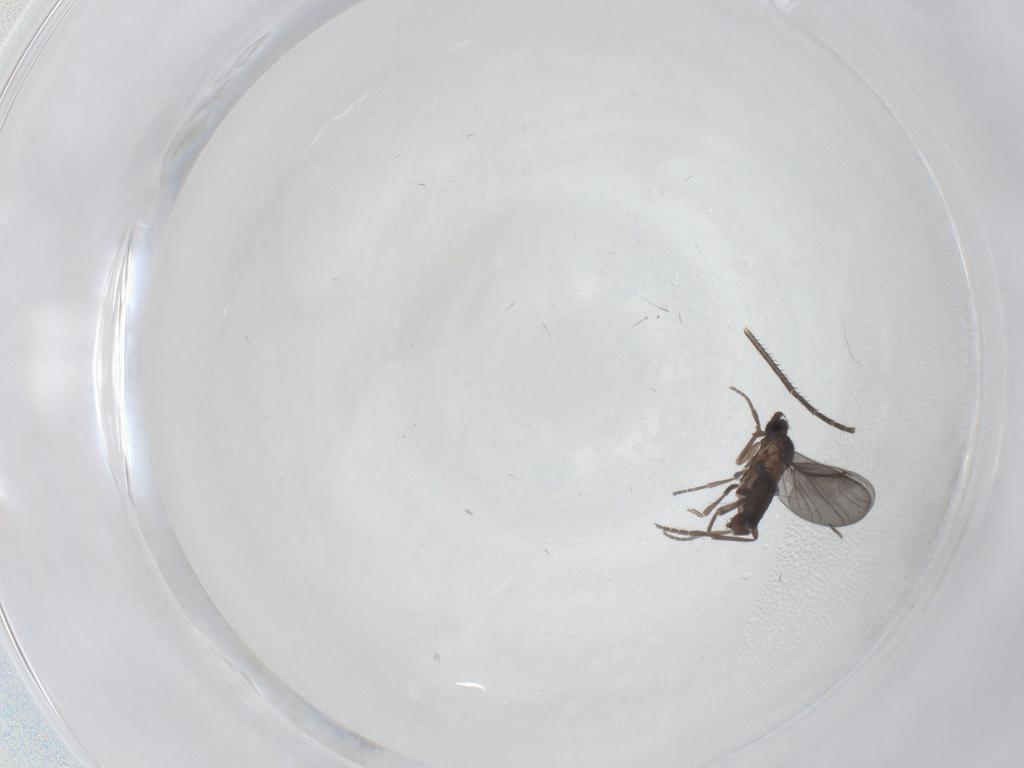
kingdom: Animalia
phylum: Arthropoda
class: Insecta
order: Diptera
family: Phoridae
